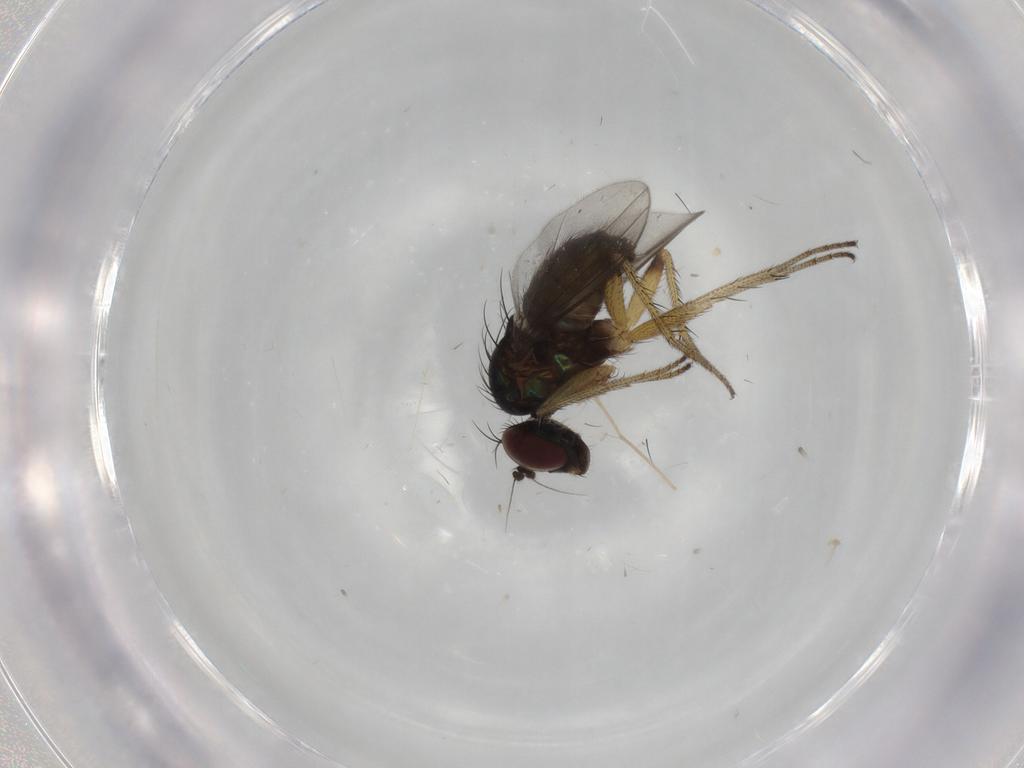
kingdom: Animalia
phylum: Arthropoda
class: Insecta
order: Diptera
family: Dolichopodidae
